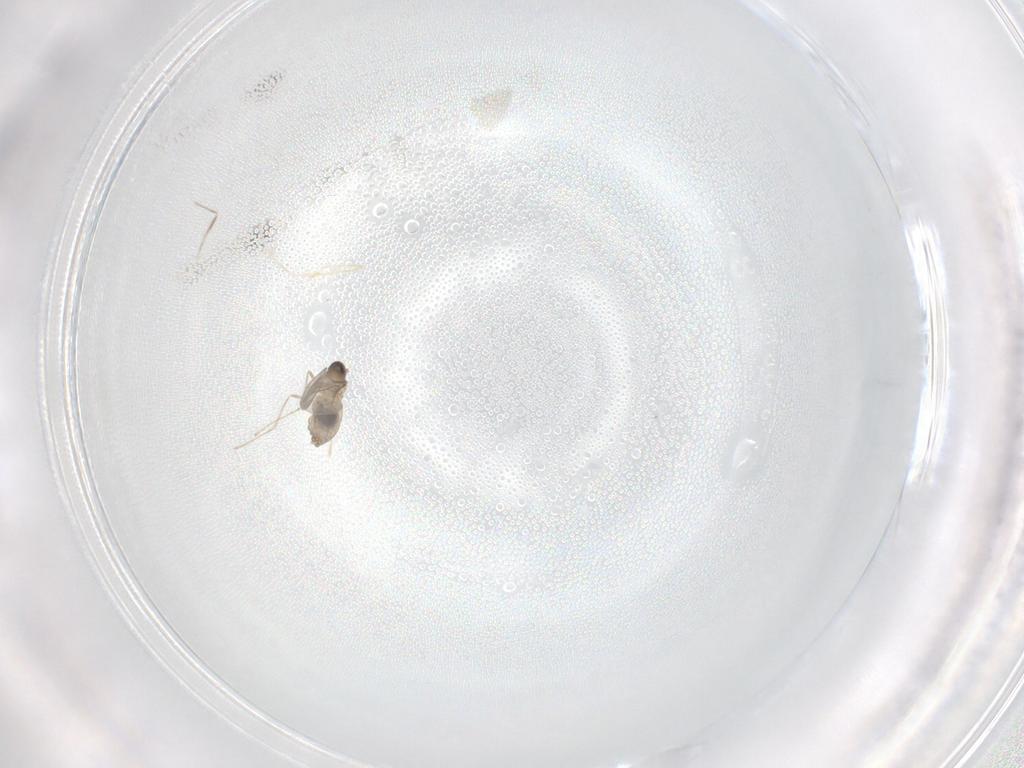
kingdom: Animalia
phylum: Arthropoda
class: Insecta
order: Diptera
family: Cecidomyiidae
